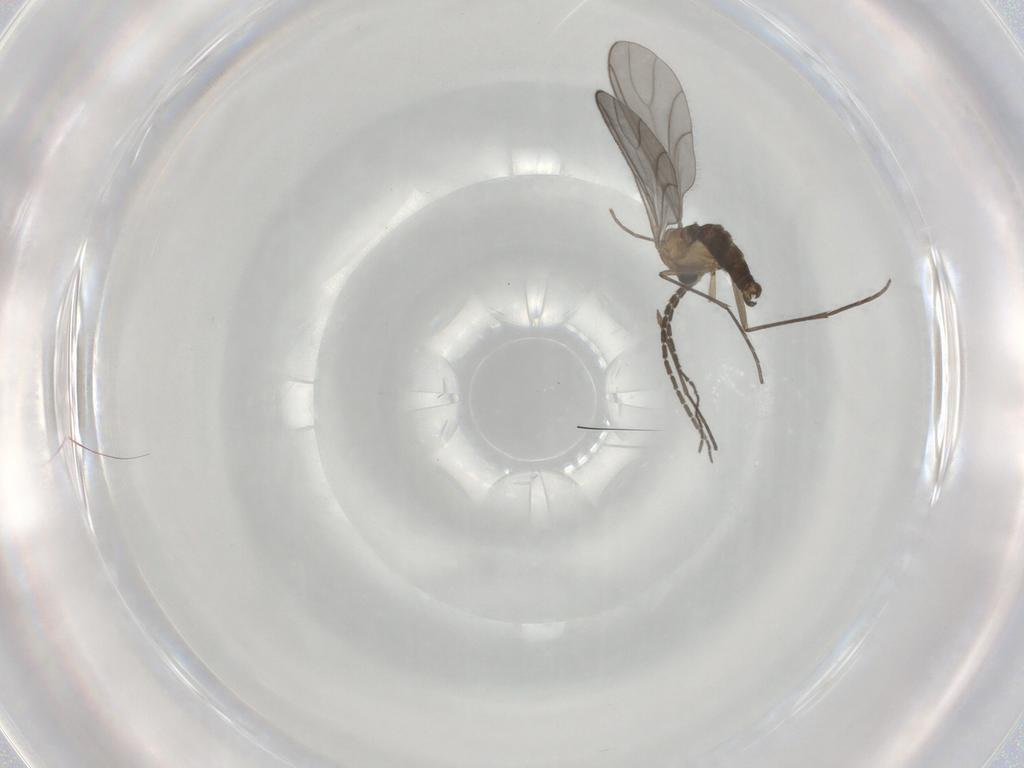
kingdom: Animalia
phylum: Arthropoda
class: Insecta
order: Diptera
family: Sciaridae
